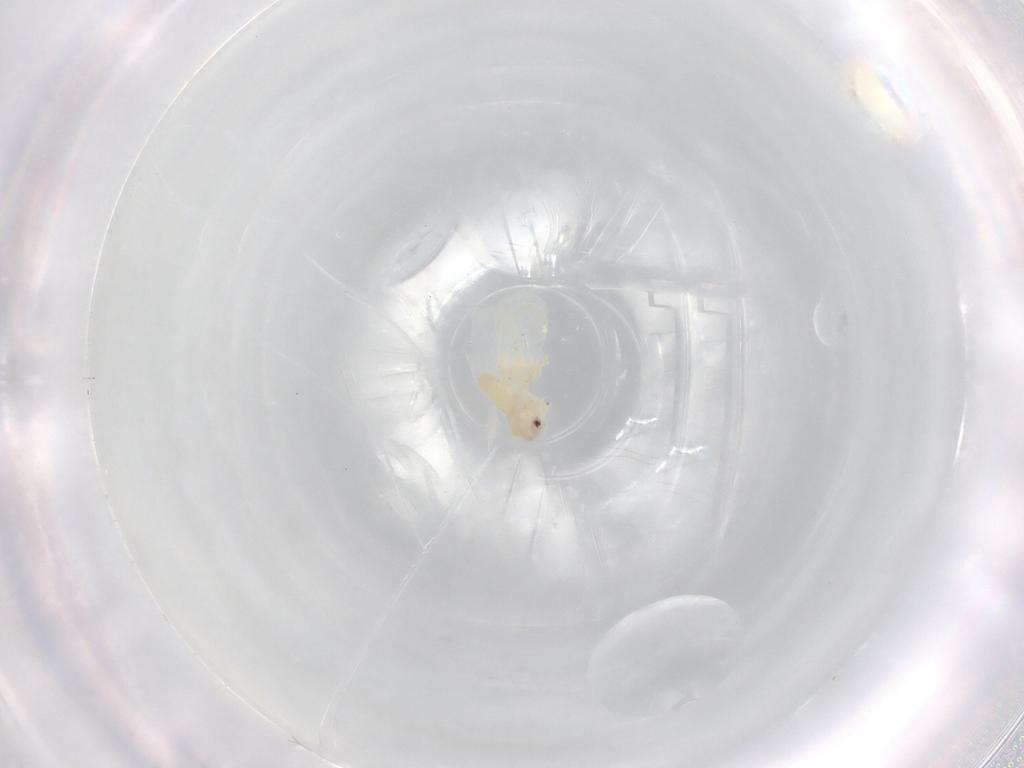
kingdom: Animalia
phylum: Arthropoda
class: Insecta
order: Hemiptera
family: Aleyrodidae
